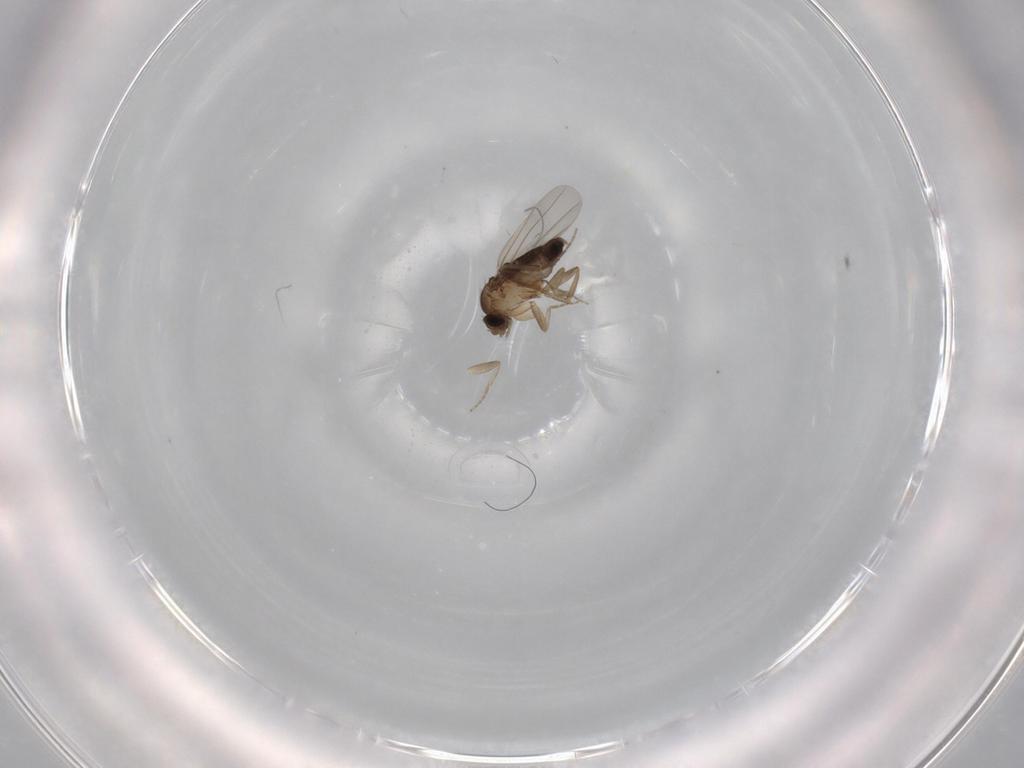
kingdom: Animalia
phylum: Arthropoda
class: Insecta
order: Diptera
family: Phoridae
